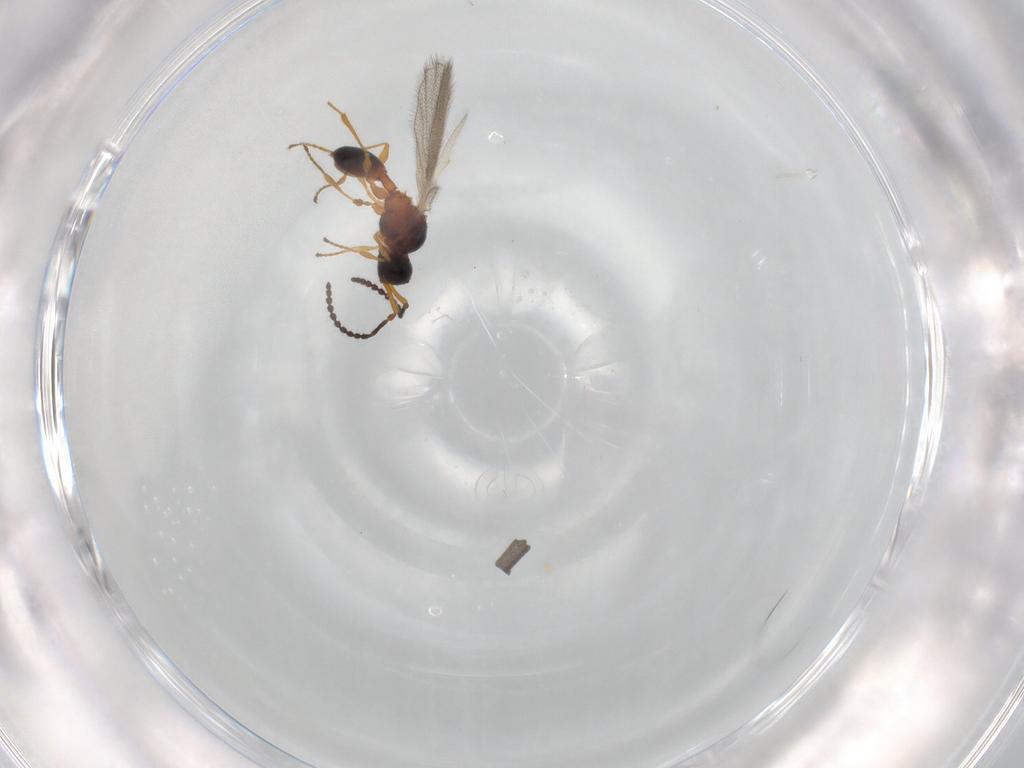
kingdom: Animalia
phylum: Arthropoda
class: Insecta
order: Hymenoptera
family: Diapriidae
